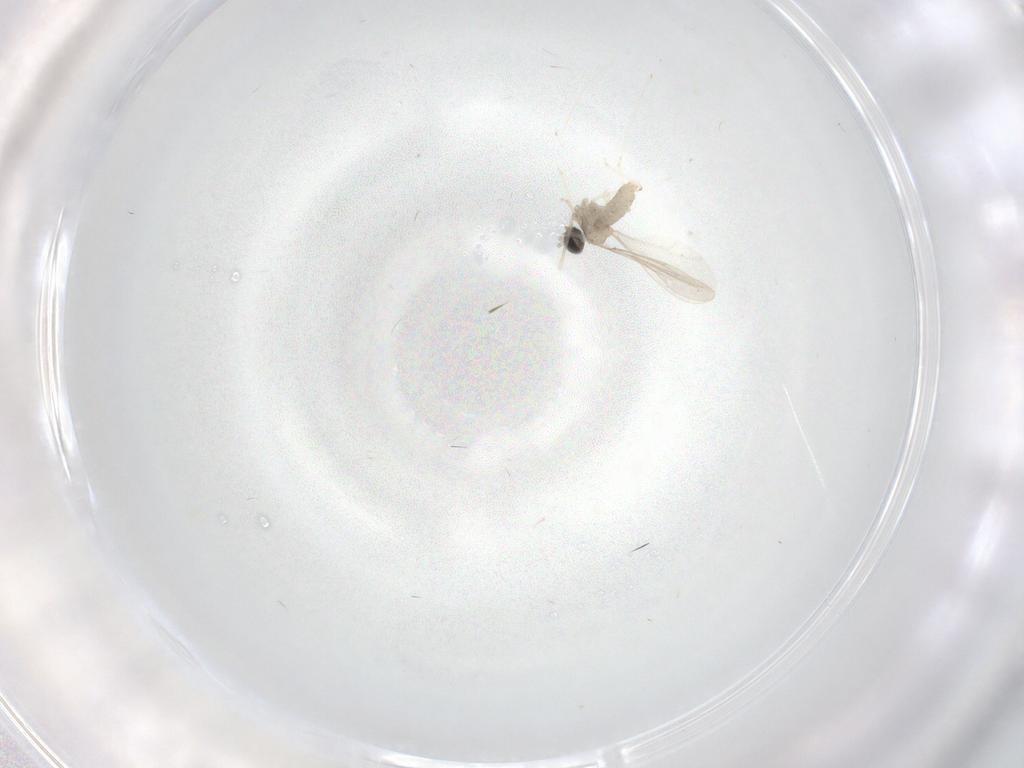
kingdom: Animalia
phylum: Arthropoda
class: Insecta
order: Diptera
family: Cecidomyiidae
